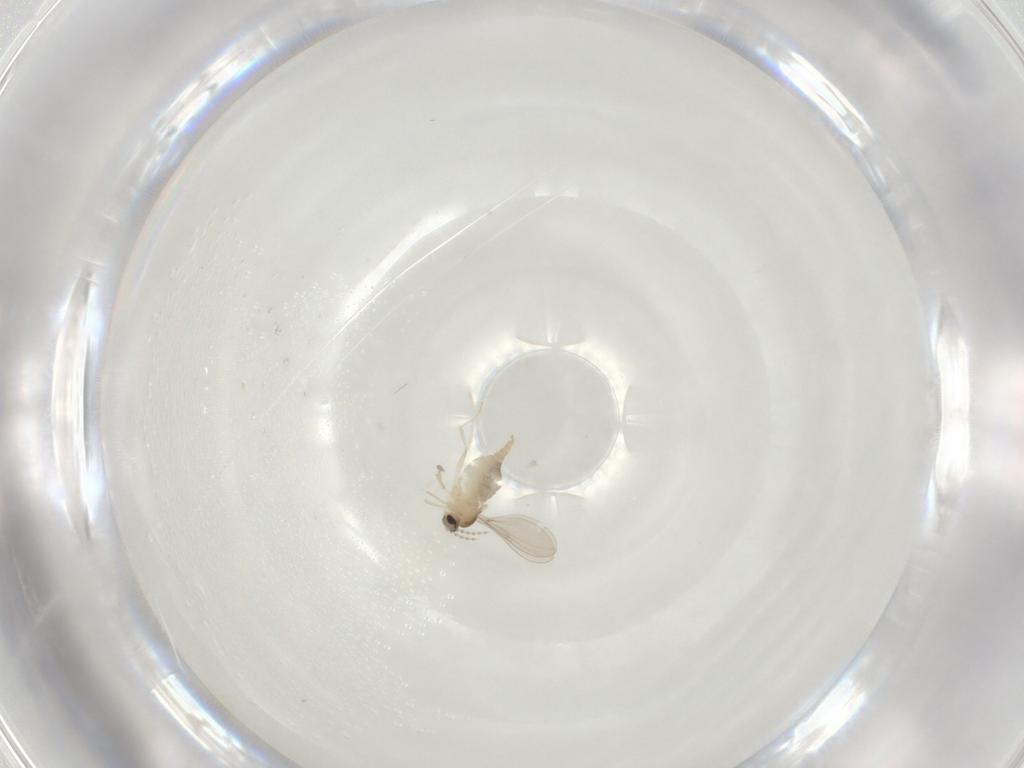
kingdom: Animalia
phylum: Arthropoda
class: Insecta
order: Diptera
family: Cecidomyiidae
